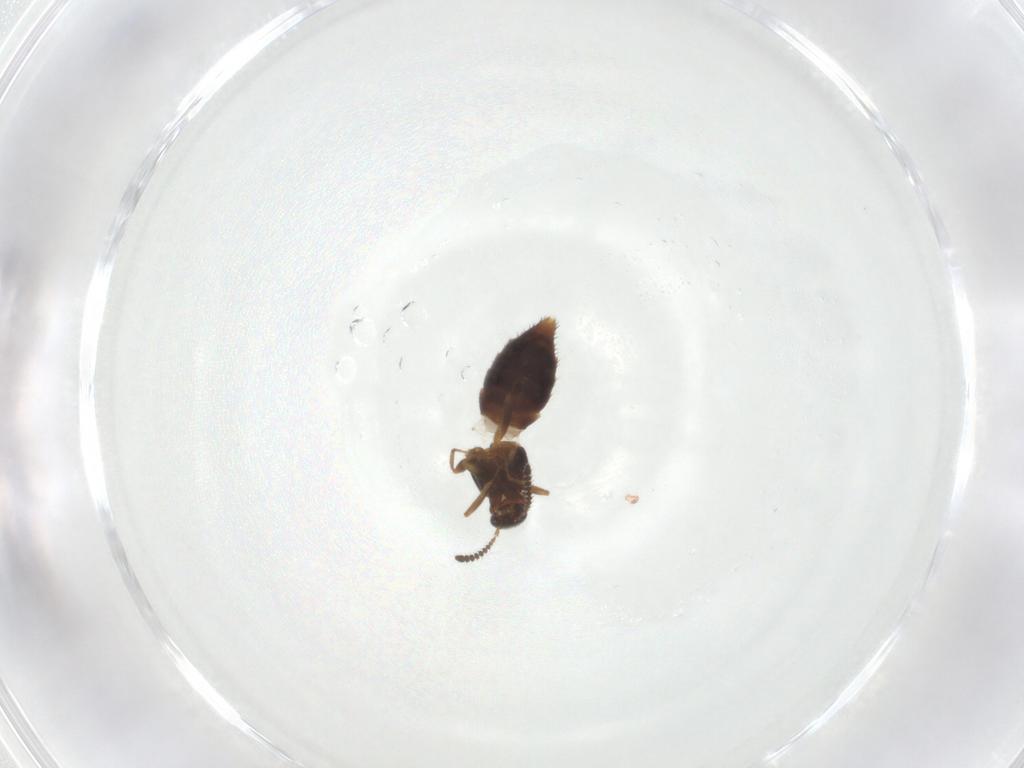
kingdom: Animalia
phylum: Arthropoda
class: Insecta
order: Coleoptera
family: Staphylinidae
